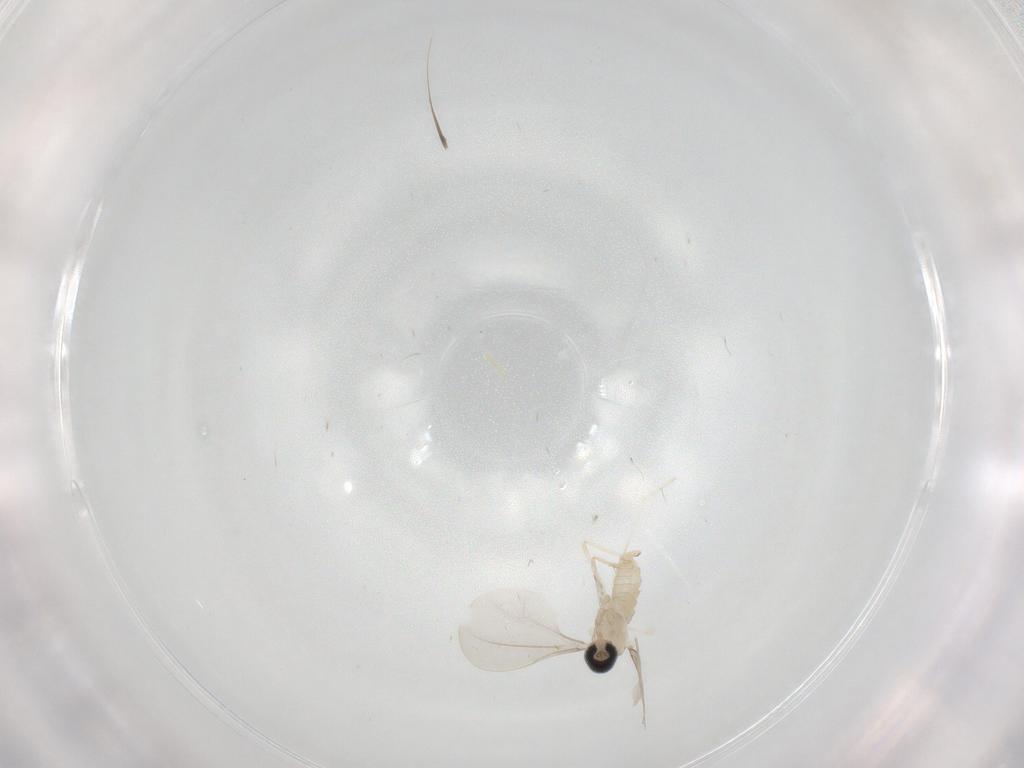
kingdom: Animalia
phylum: Arthropoda
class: Insecta
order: Diptera
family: Cecidomyiidae
